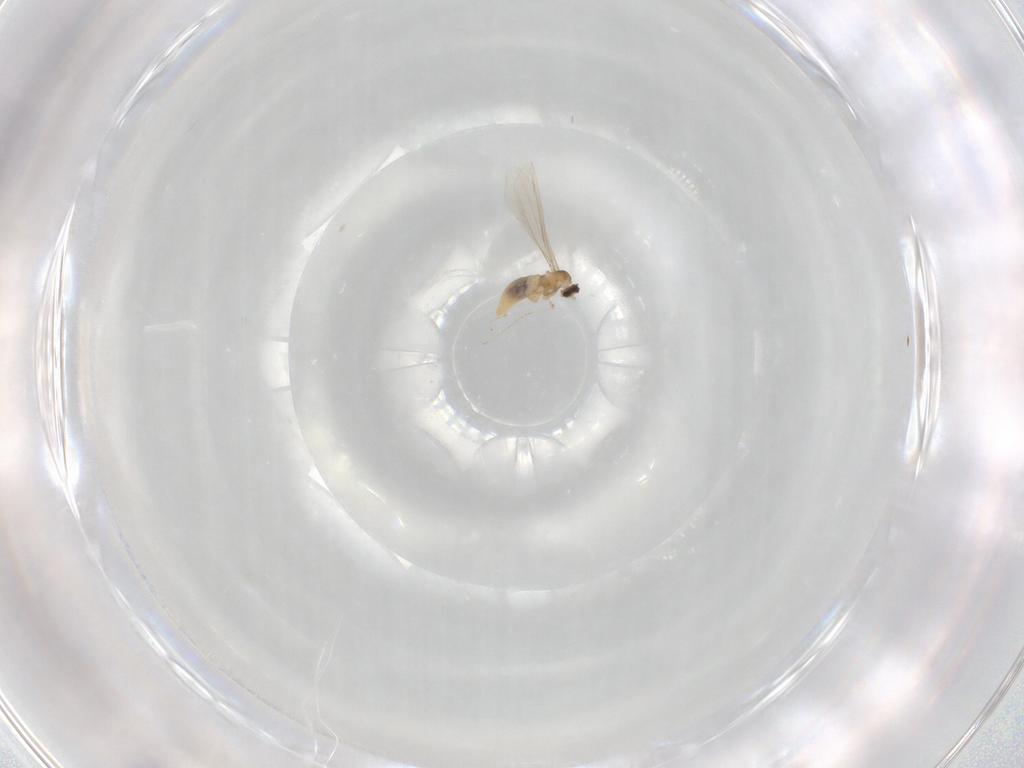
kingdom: Animalia
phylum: Arthropoda
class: Insecta
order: Diptera
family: Cecidomyiidae
